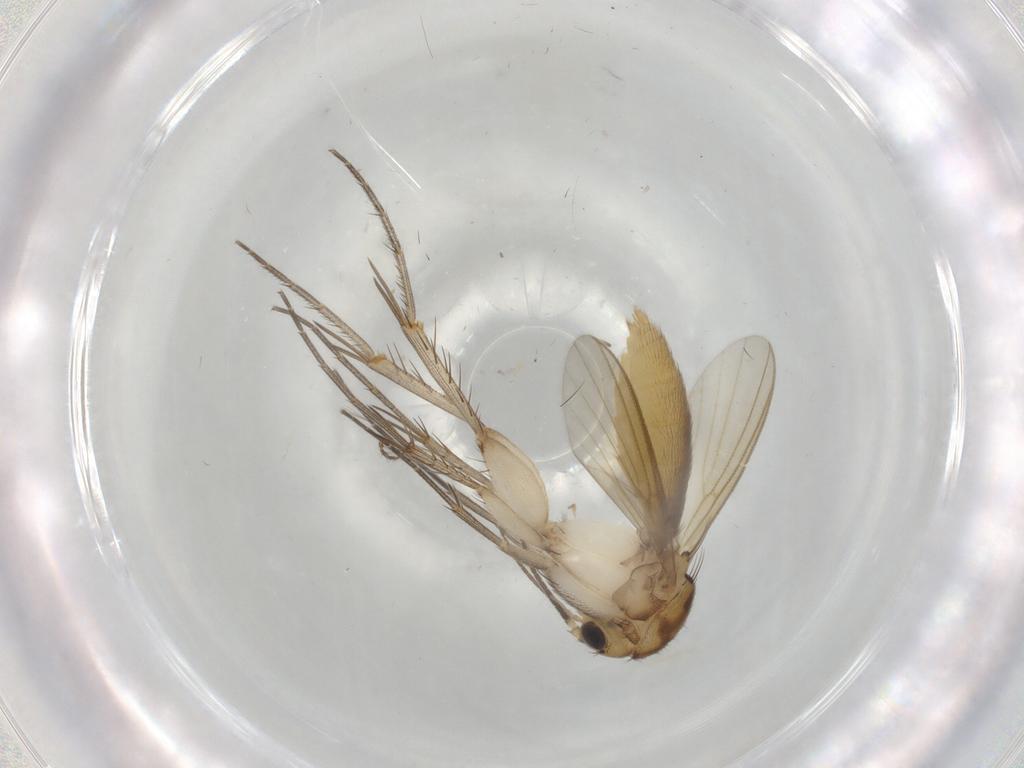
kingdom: Animalia
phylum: Arthropoda
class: Insecta
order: Diptera
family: Mycetophilidae
